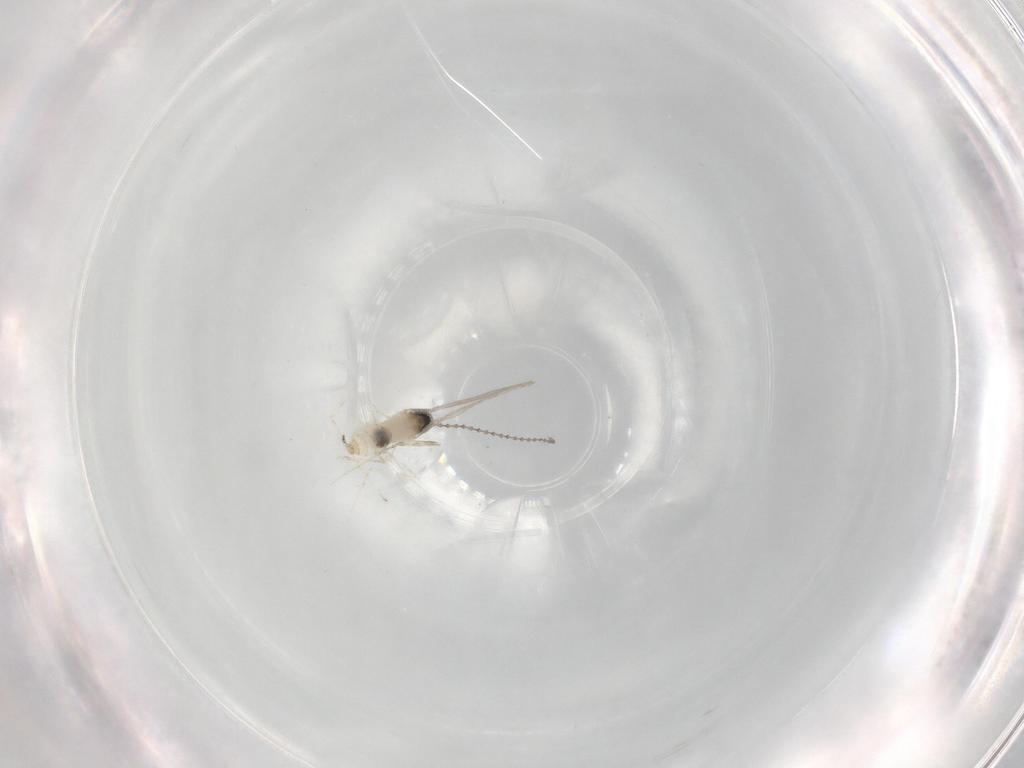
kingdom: Animalia
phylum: Arthropoda
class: Insecta
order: Diptera
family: Cecidomyiidae
